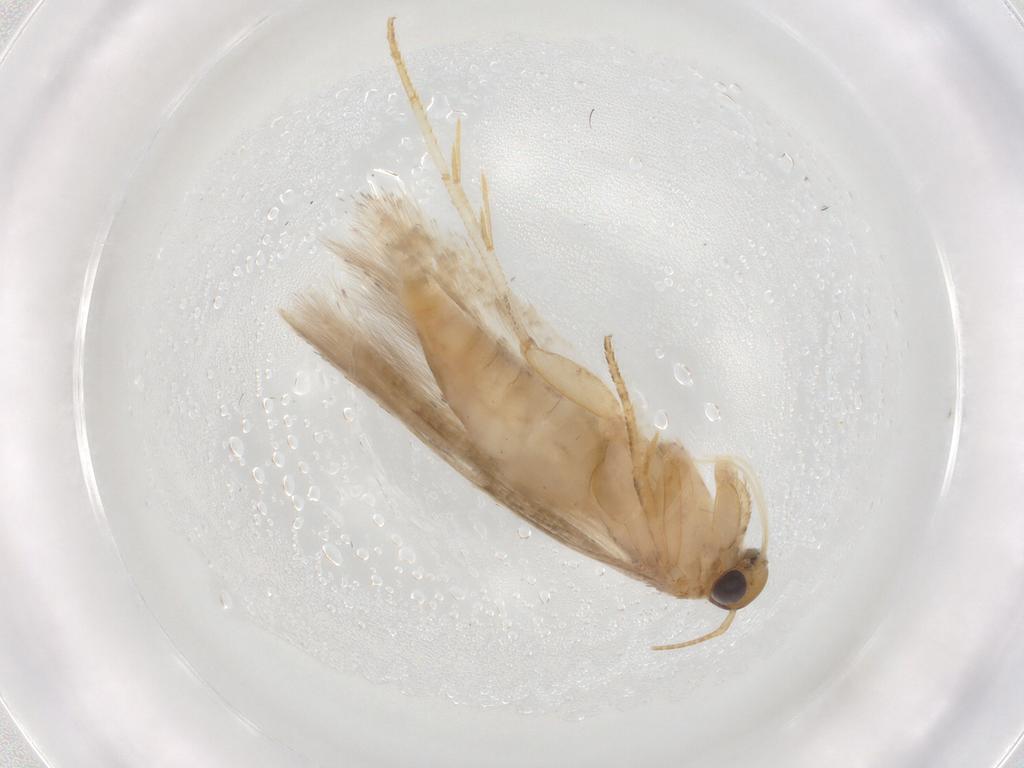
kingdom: Animalia
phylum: Arthropoda
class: Insecta
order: Lepidoptera
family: Gelechiidae
